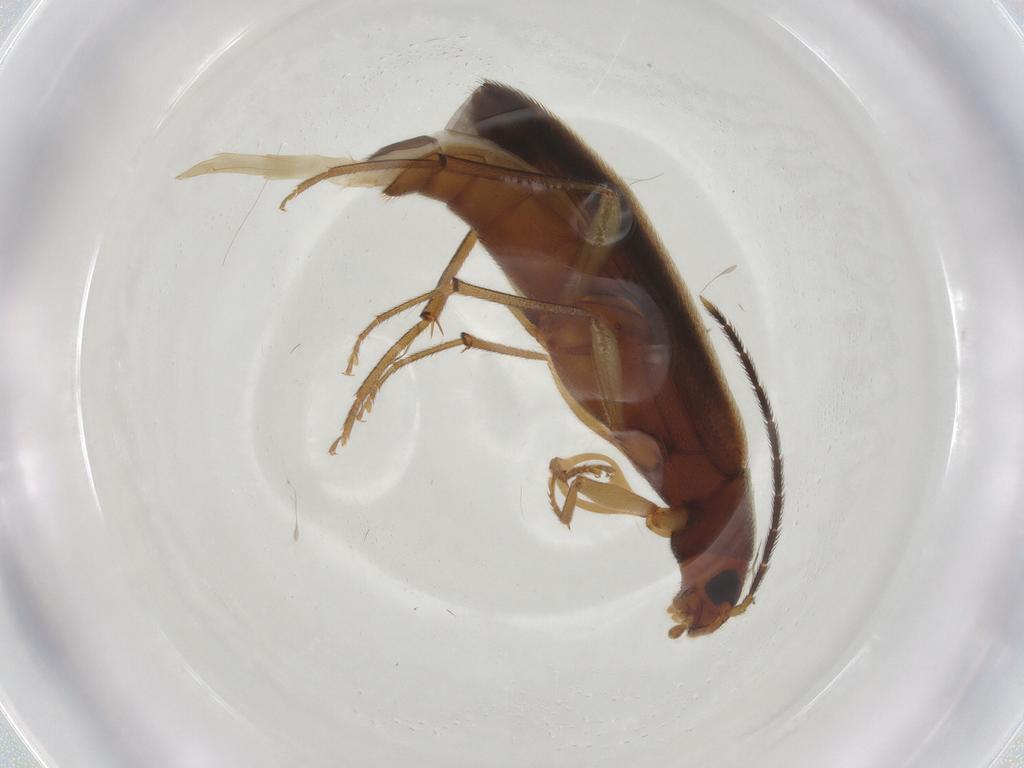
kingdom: Animalia
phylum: Arthropoda
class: Insecta
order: Coleoptera
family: Melandryidae
